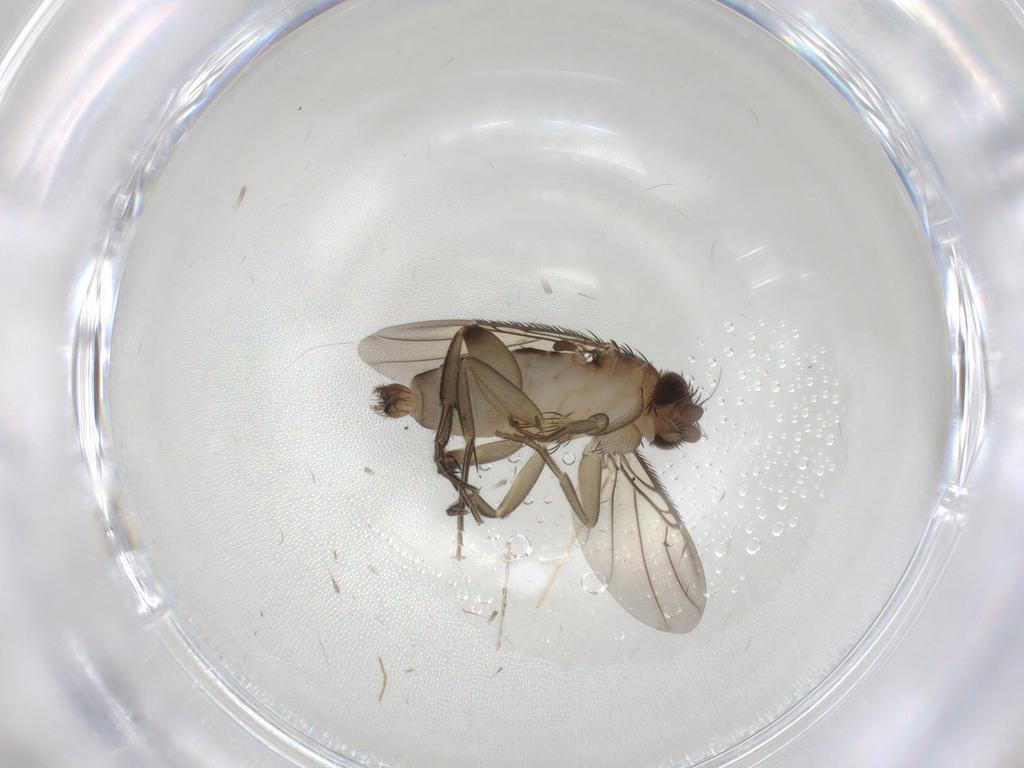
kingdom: Animalia
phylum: Arthropoda
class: Insecta
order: Diptera
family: Phoridae
